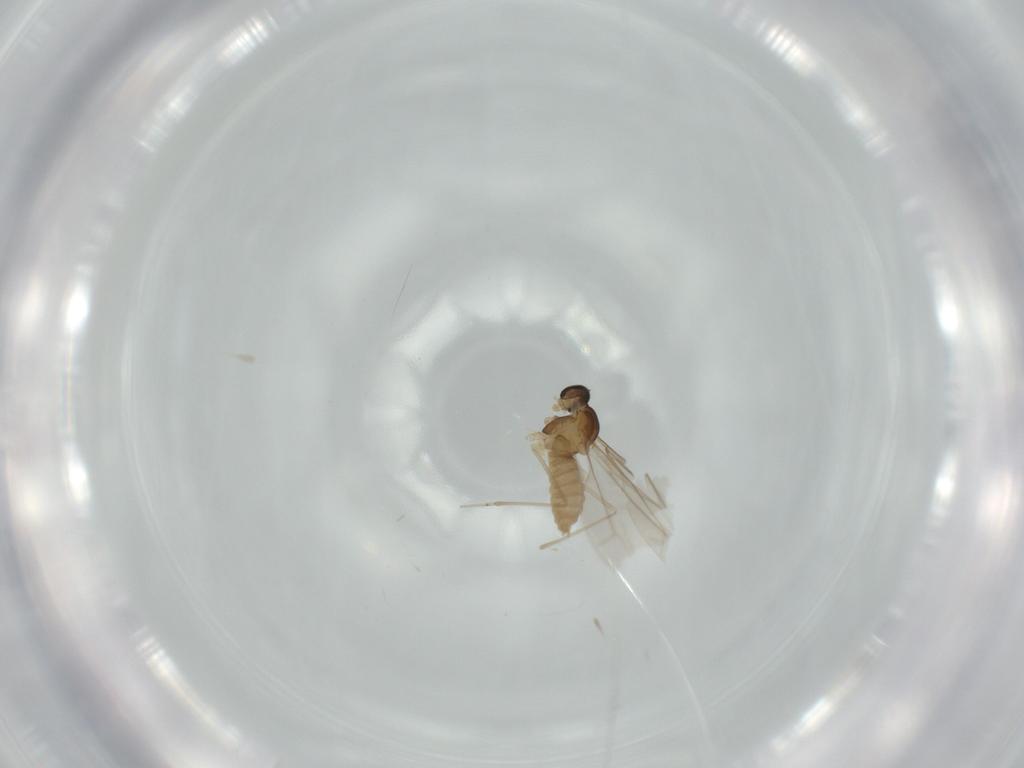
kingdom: Animalia
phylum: Arthropoda
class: Insecta
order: Diptera
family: Cecidomyiidae
